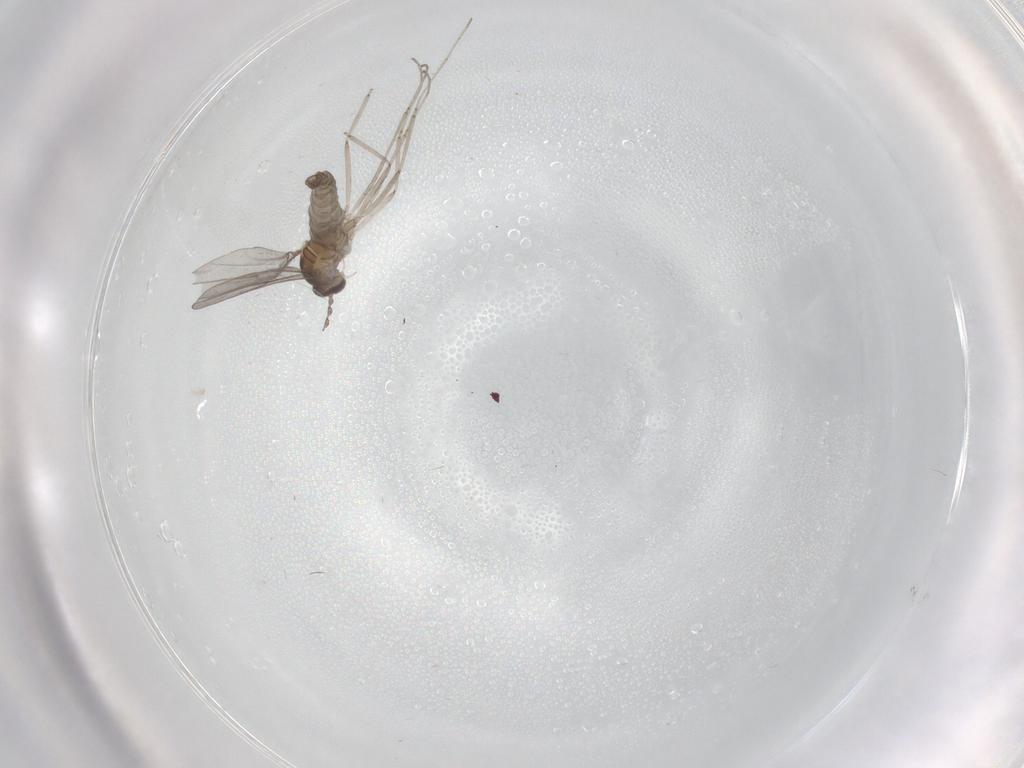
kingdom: Animalia
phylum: Arthropoda
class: Insecta
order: Diptera
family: Cecidomyiidae
